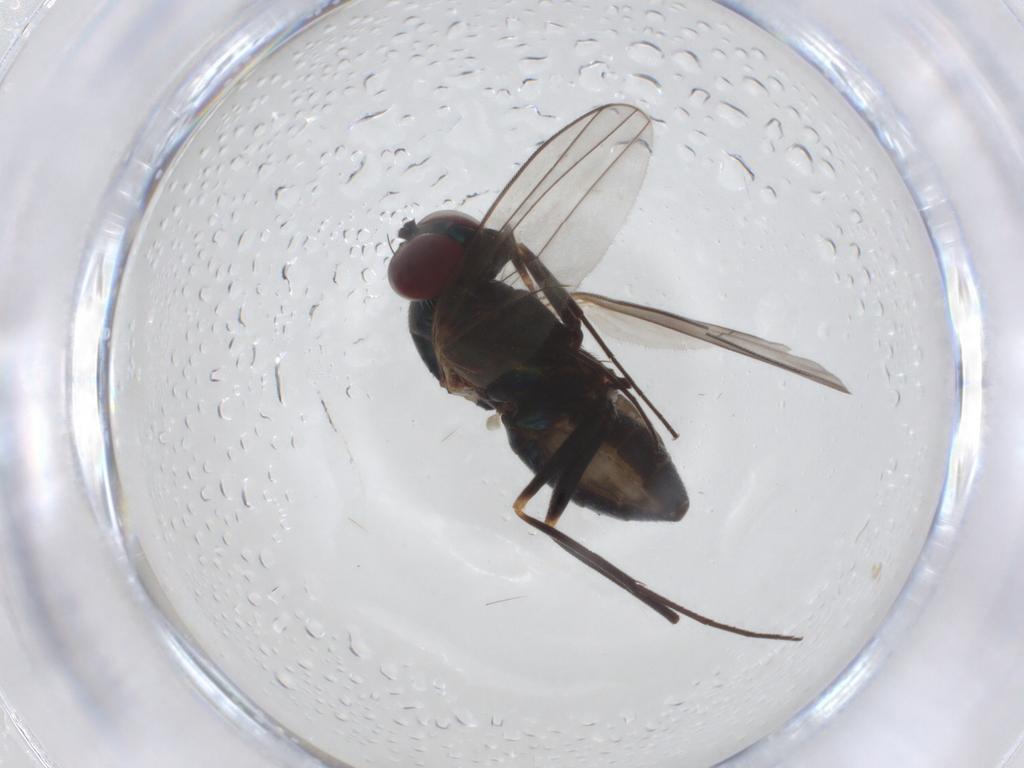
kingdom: Animalia
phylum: Arthropoda
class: Insecta
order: Diptera
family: Dolichopodidae
